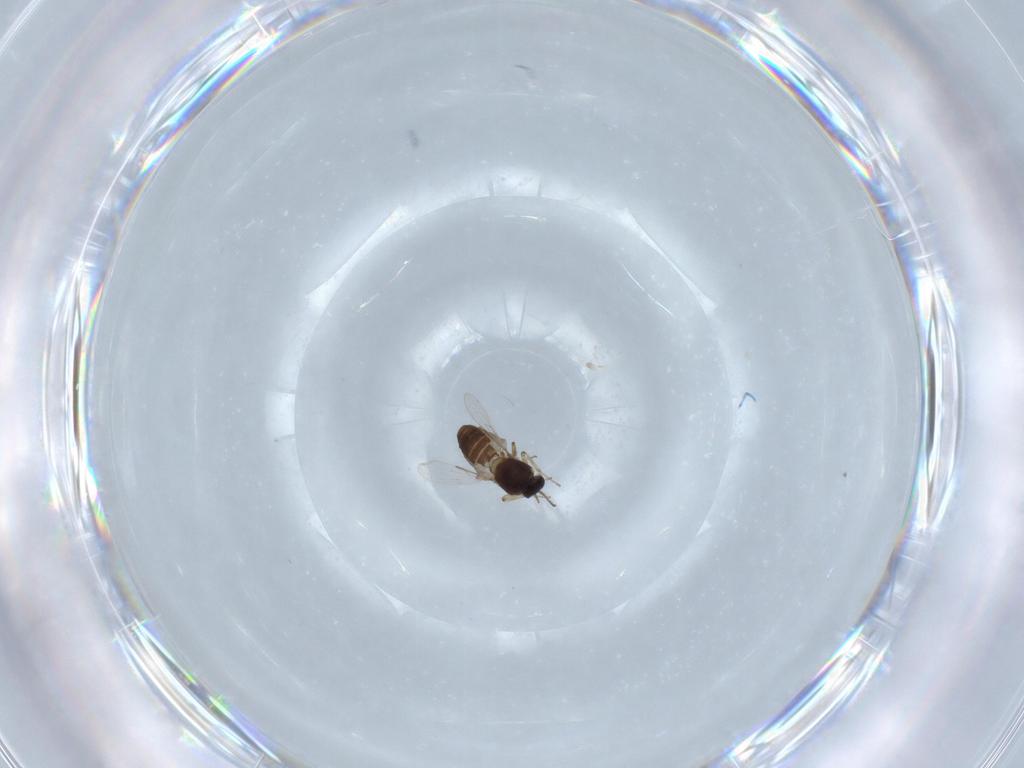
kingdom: Animalia
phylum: Arthropoda
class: Insecta
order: Diptera
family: Ceratopogonidae
